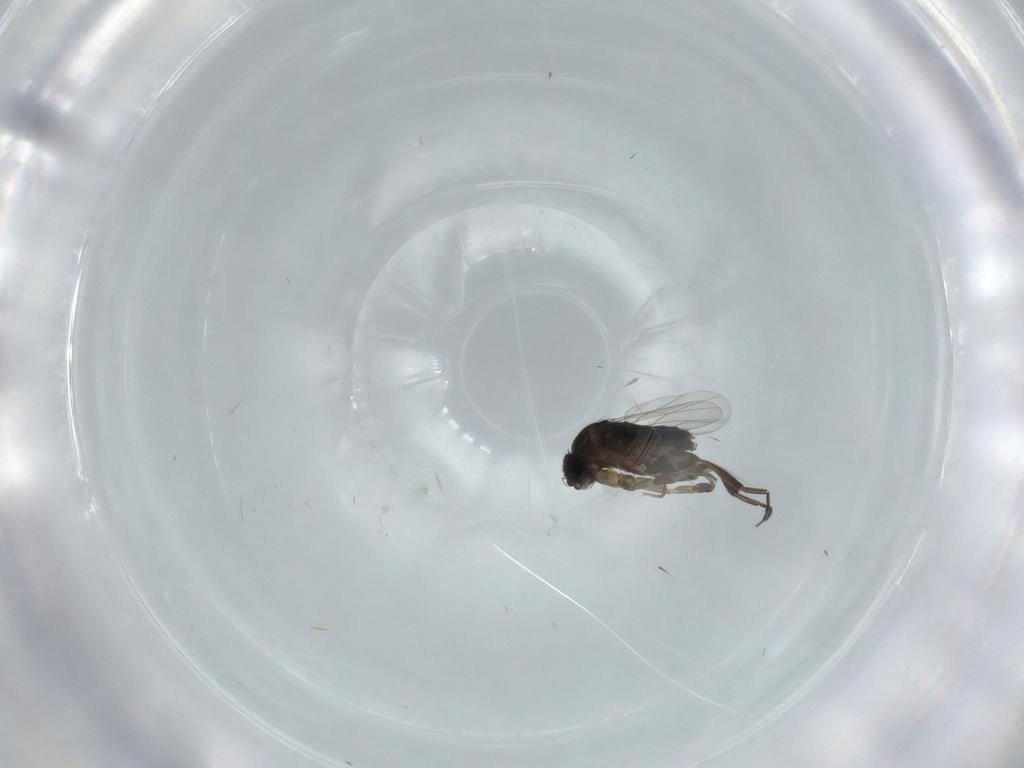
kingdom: Animalia
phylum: Arthropoda
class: Insecta
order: Diptera
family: Phoridae
